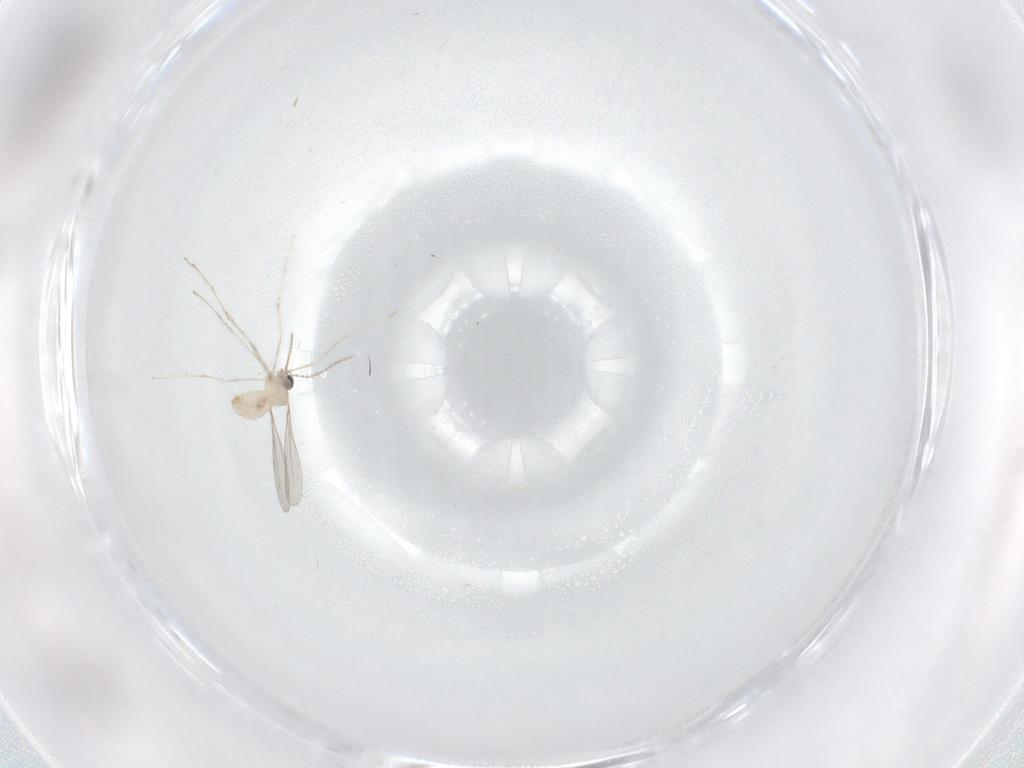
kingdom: Animalia
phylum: Arthropoda
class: Insecta
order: Diptera
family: Cecidomyiidae
